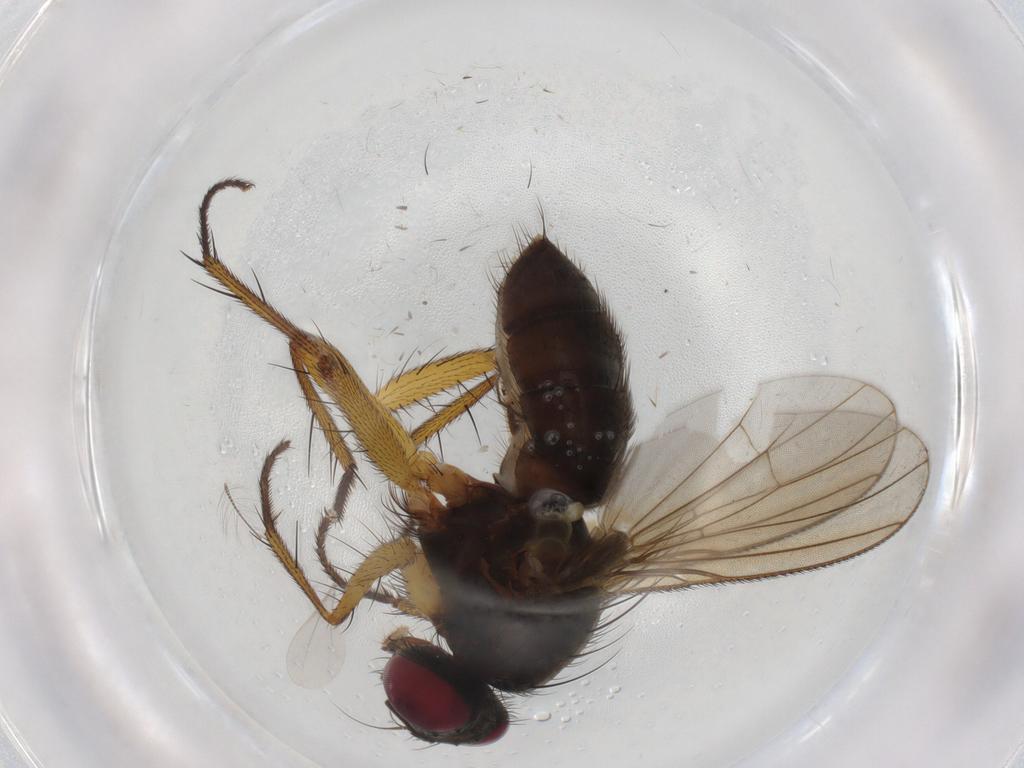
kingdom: Animalia
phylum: Arthropoda
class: Insecta
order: Diptera
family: Muscidae
